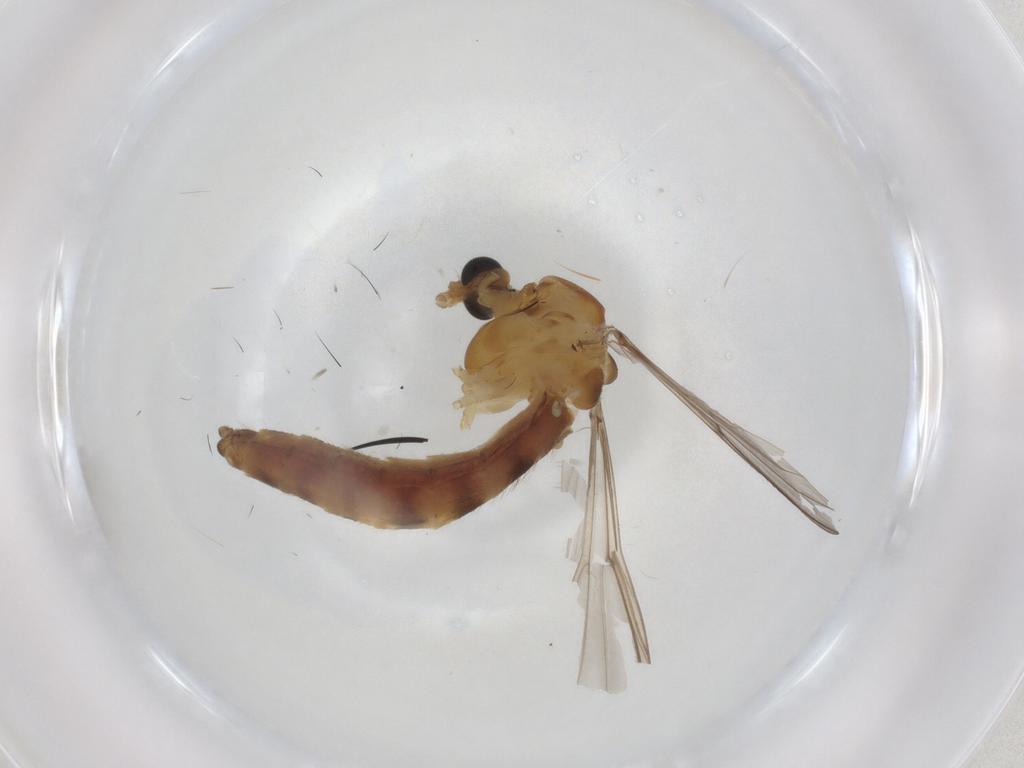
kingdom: Animalia
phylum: Arthropoda
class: Insecta
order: Diptera
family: Chironomidae
